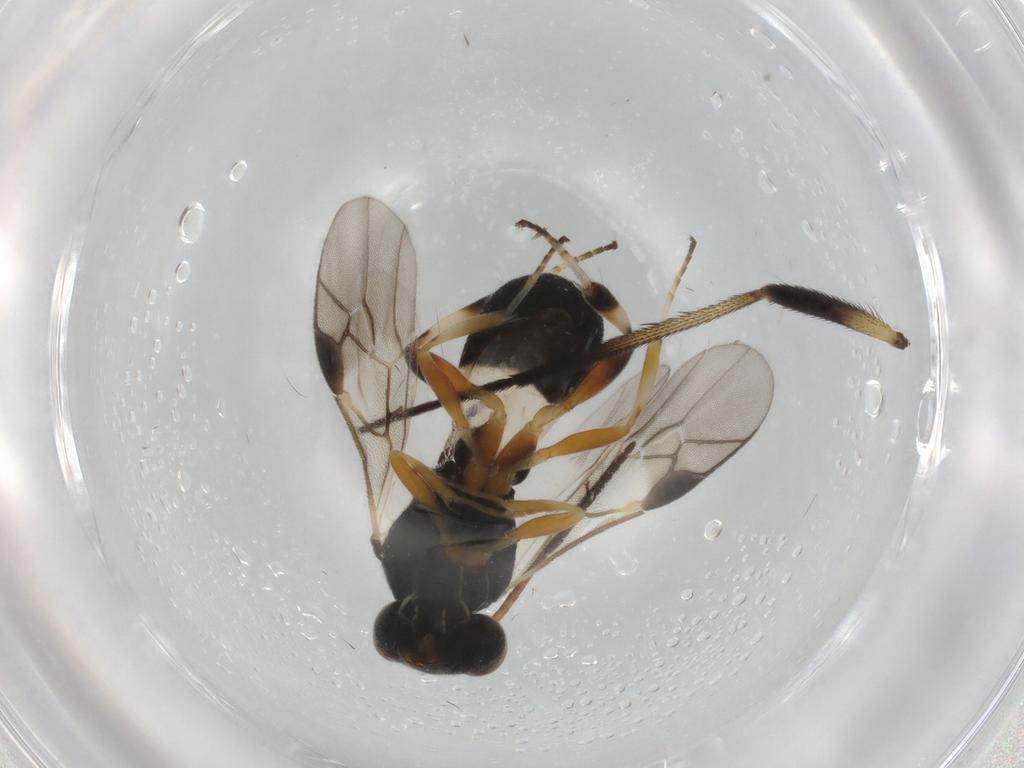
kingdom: Animalia
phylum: Arthropoda
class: Insecta
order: Hymenoptera
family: Braconidae
